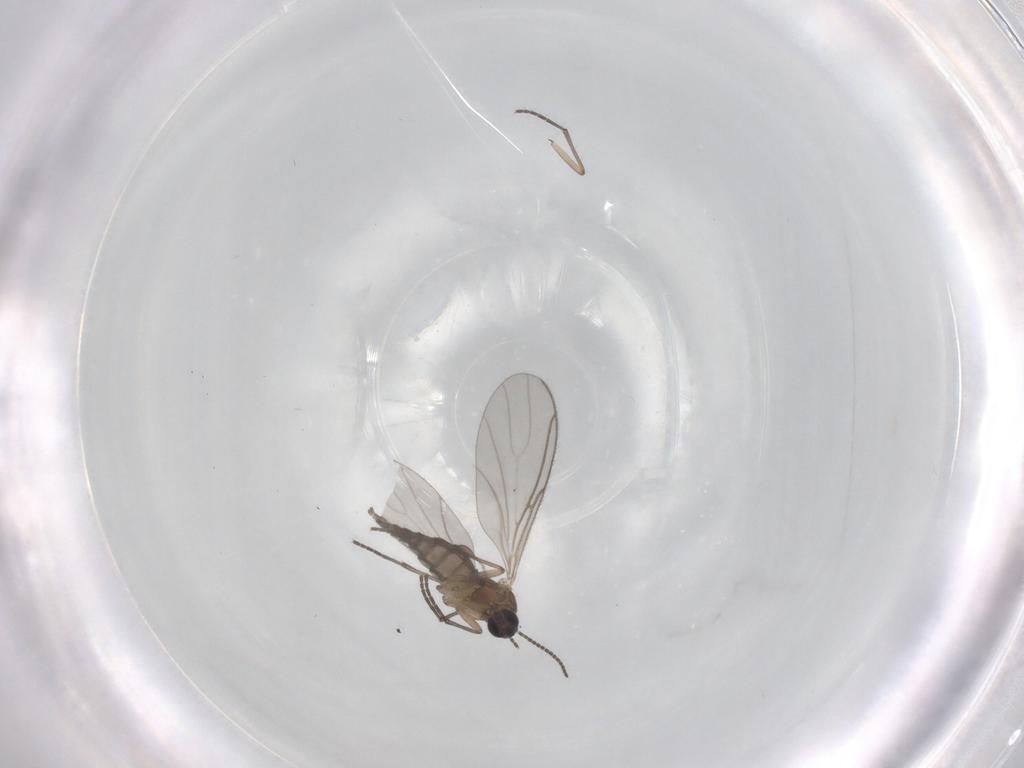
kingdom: Animalia
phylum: Arthropoda
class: Insecta
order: Diptera
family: Sciaridae
